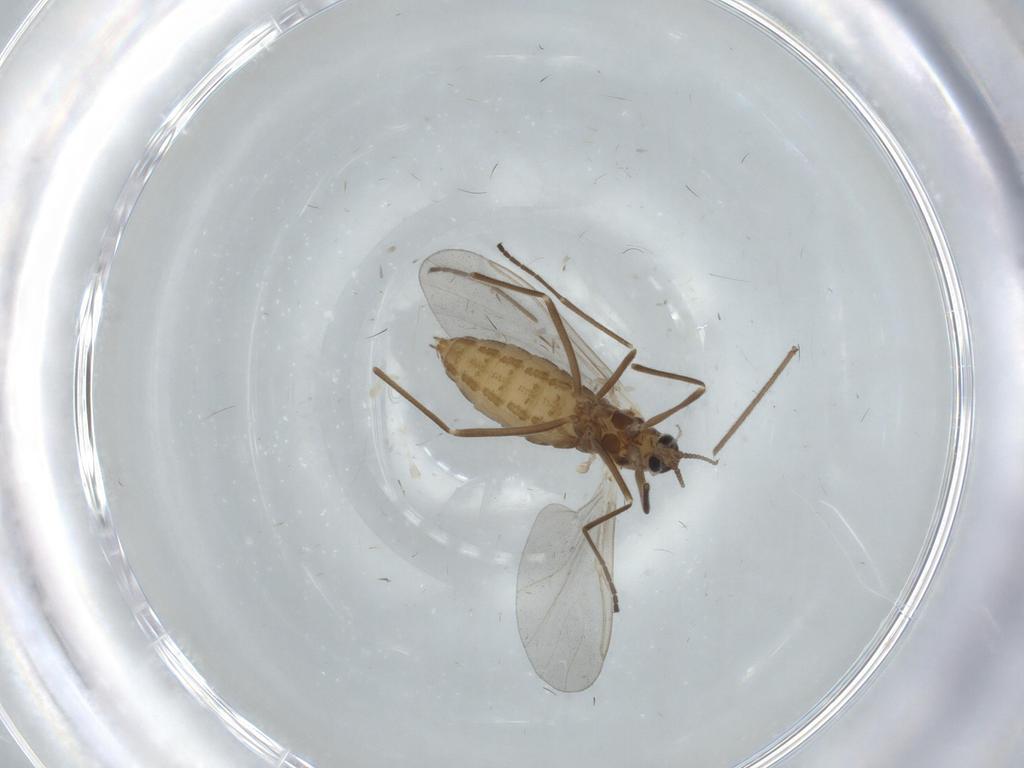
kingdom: Animalia
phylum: Arthropoda
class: Insecta
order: Diptera
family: Cecidomyiidae
